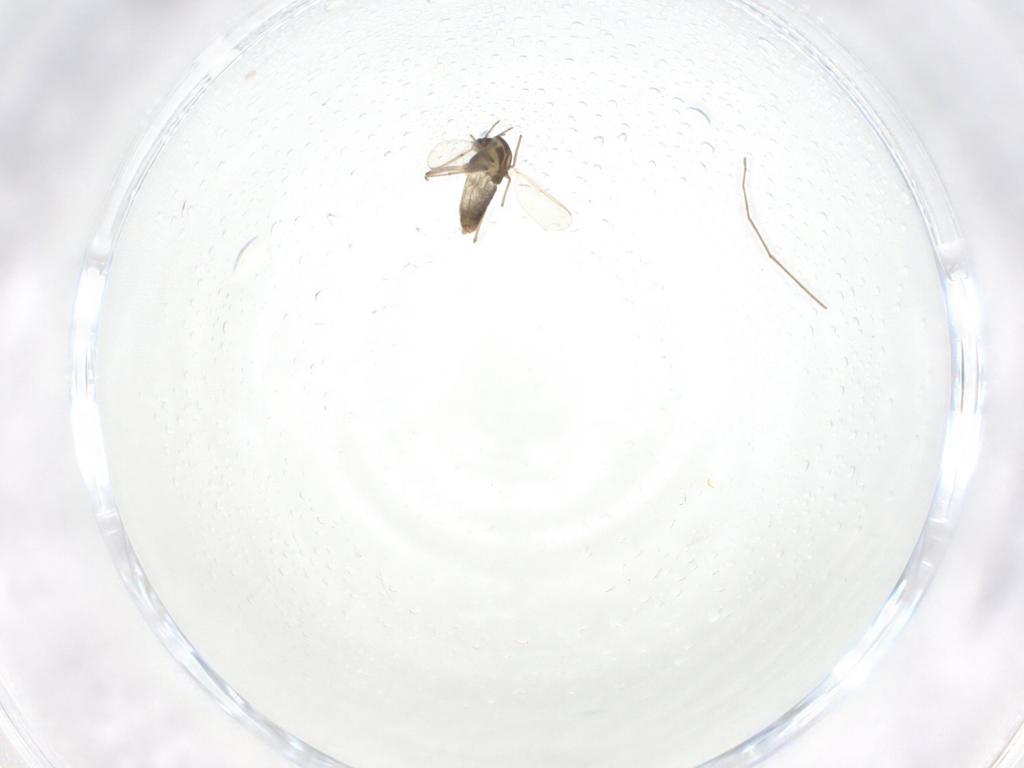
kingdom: Animalia
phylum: Arthropoda
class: Insecta
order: Diptera
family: Chironomidae
